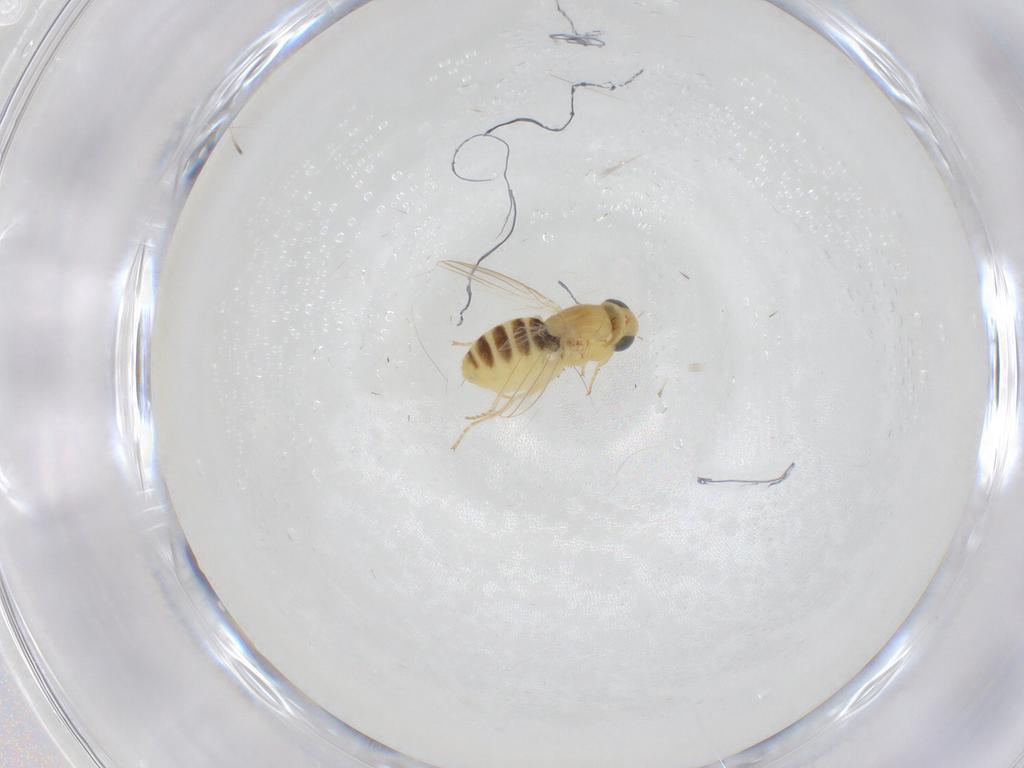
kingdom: Animalia
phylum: Arthropoda
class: Insecta
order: Diptera
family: Chyromyidae
